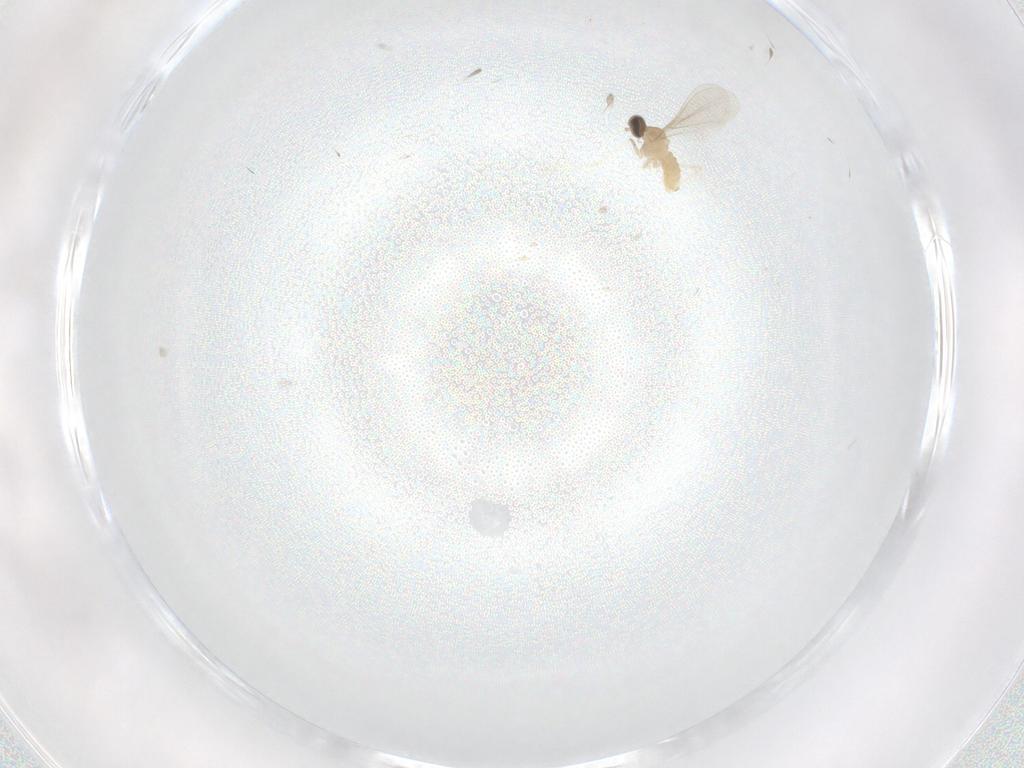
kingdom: Animalia
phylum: Arthropoda
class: Insecta
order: Diptera
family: Cecidomyiidae
